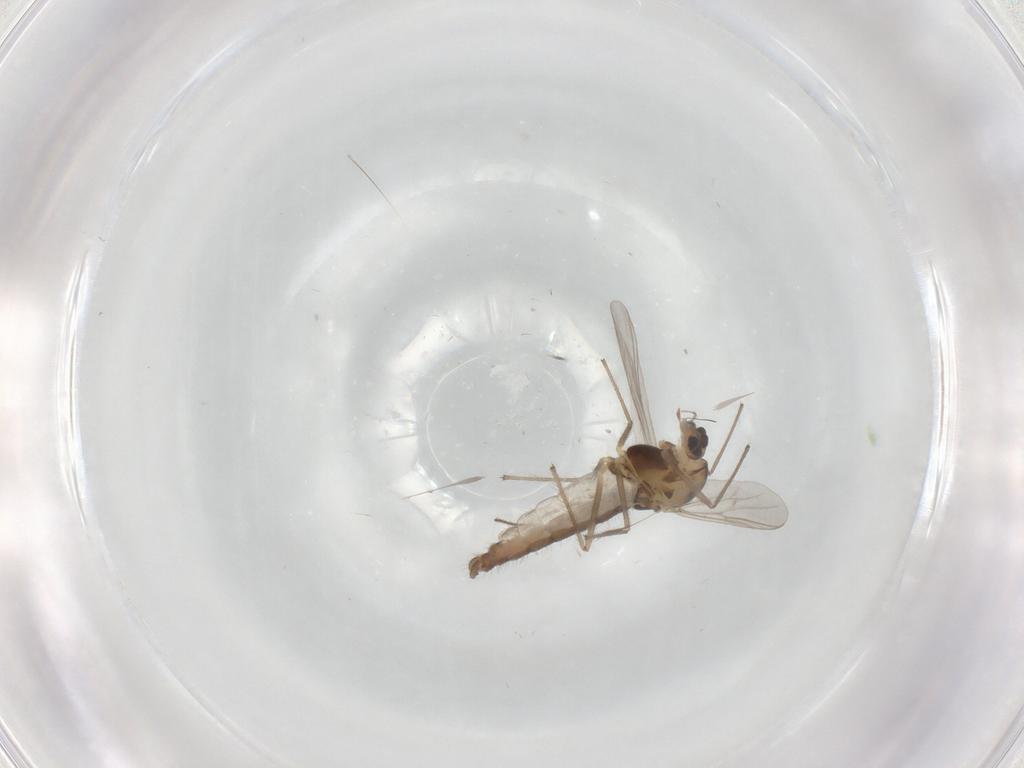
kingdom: Animalia
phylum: Arthropoda
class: Insecta
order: Diptera
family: Chironomidae
